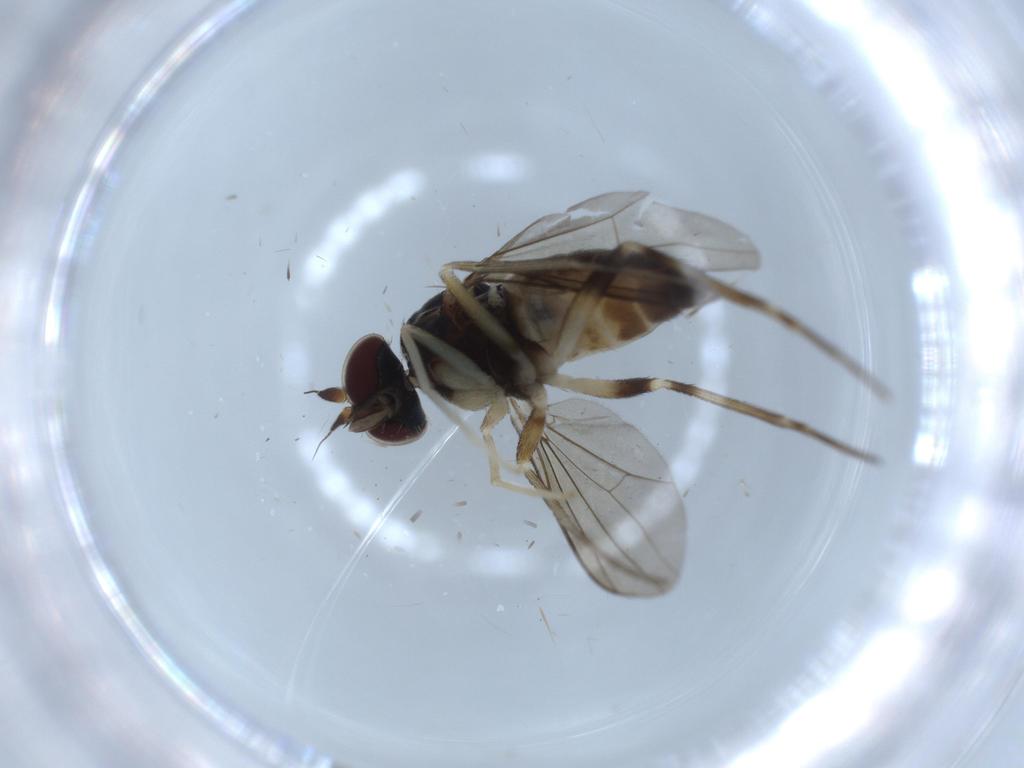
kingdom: Animalia
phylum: Arthropoda
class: Insecta
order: Diptera
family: Dolichopodidae
